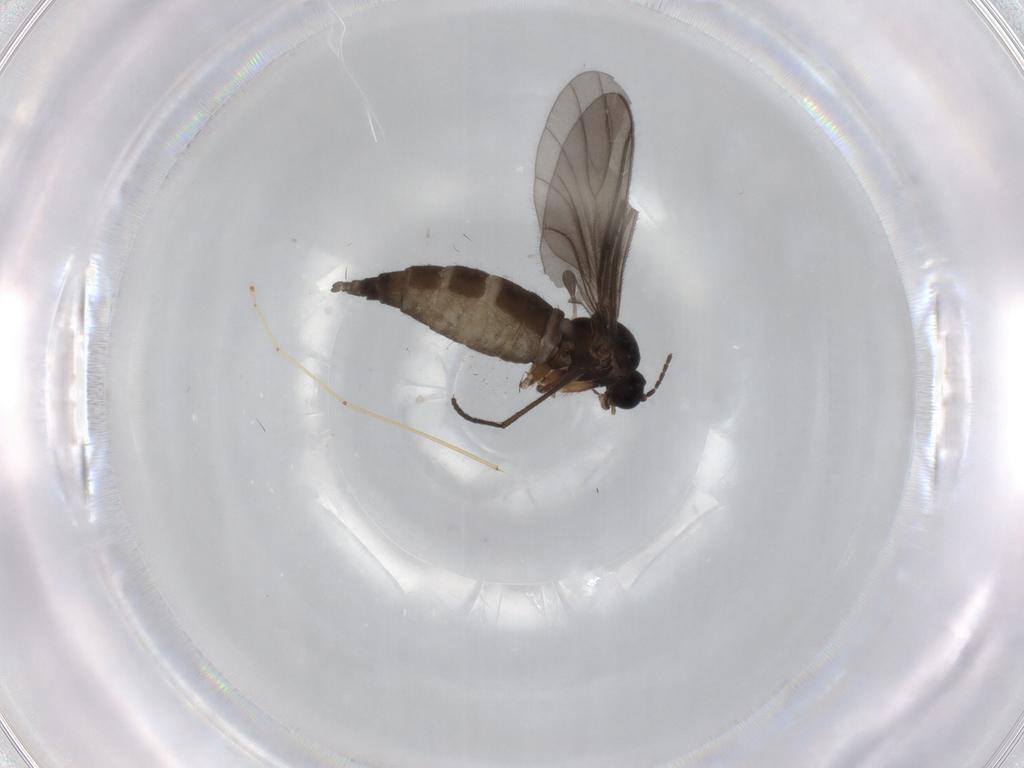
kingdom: Animalia
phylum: Arthropoda
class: Insecta
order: Diptera
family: Sciaridae
